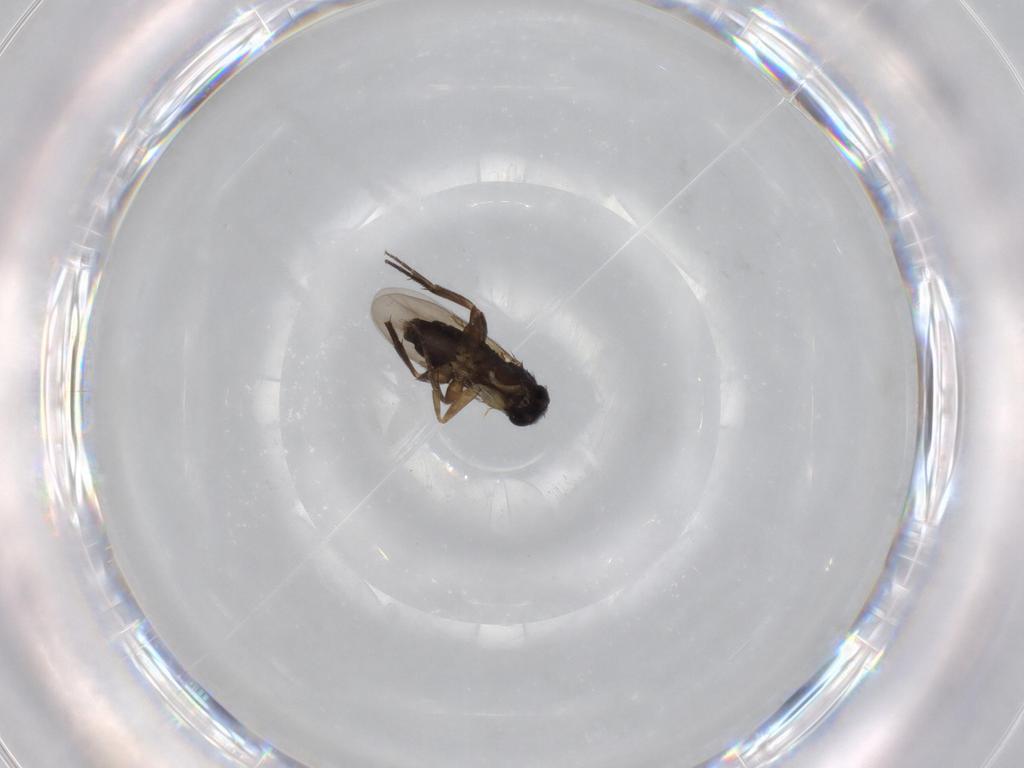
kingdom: Animalia
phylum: Arthropoda
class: Insecta
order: Diptera
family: Phoridae
